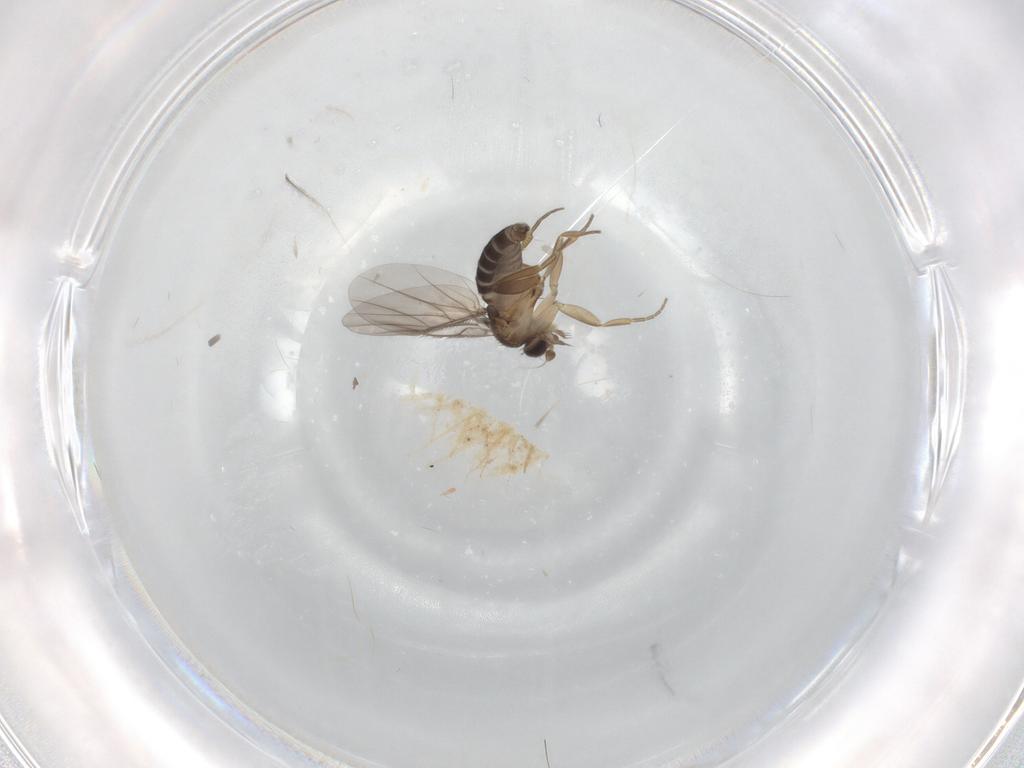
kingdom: Animalia
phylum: Arthropoda
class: Insecta
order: Diptera
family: Cecidomyiidae
